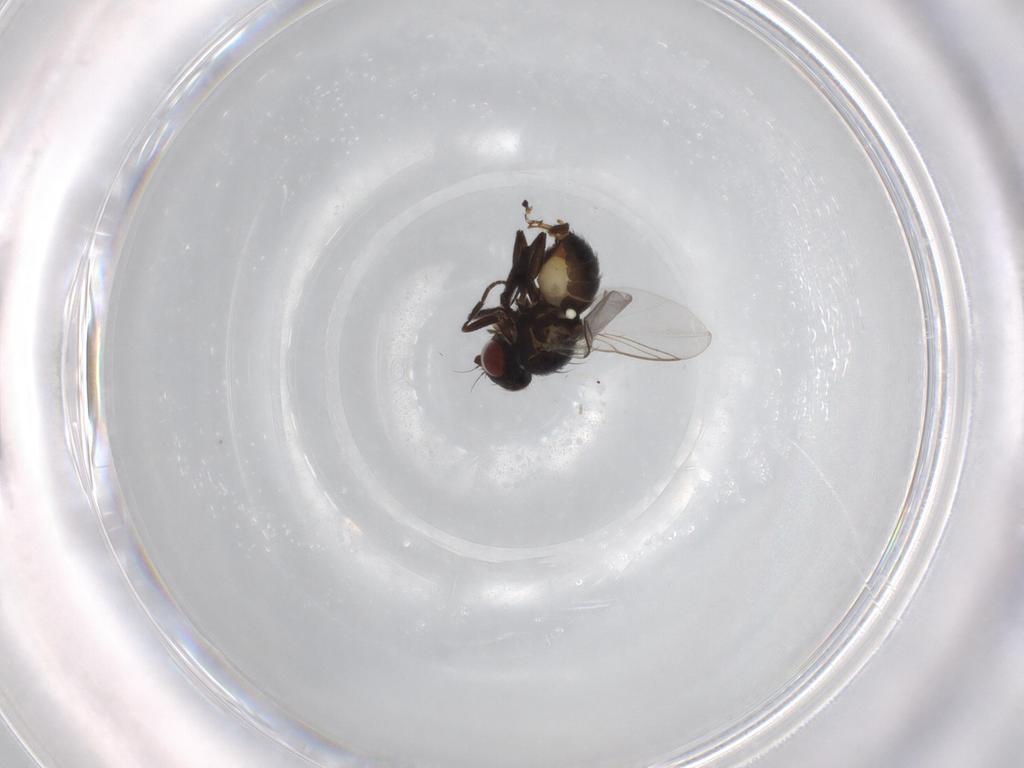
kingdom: Animalia
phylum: Arthropoda
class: Insecta
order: Diptera
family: Agromyzidae
